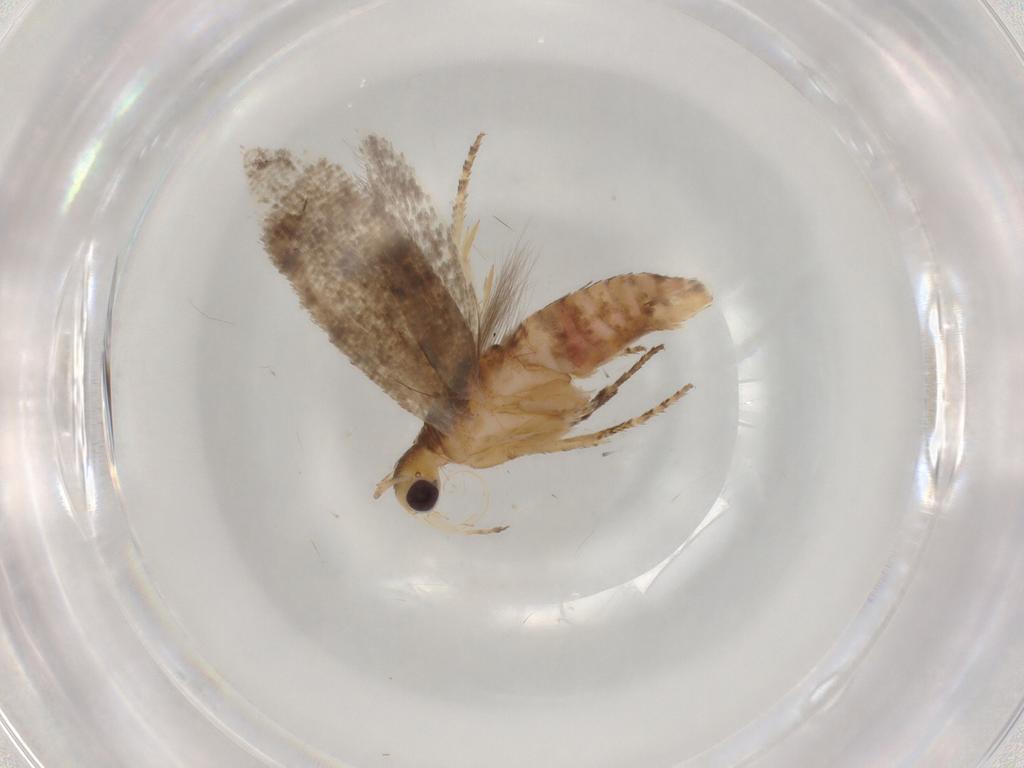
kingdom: Animalia
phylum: Arthropoda
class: Insecta
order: Lepidoptera
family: Plutellidae
